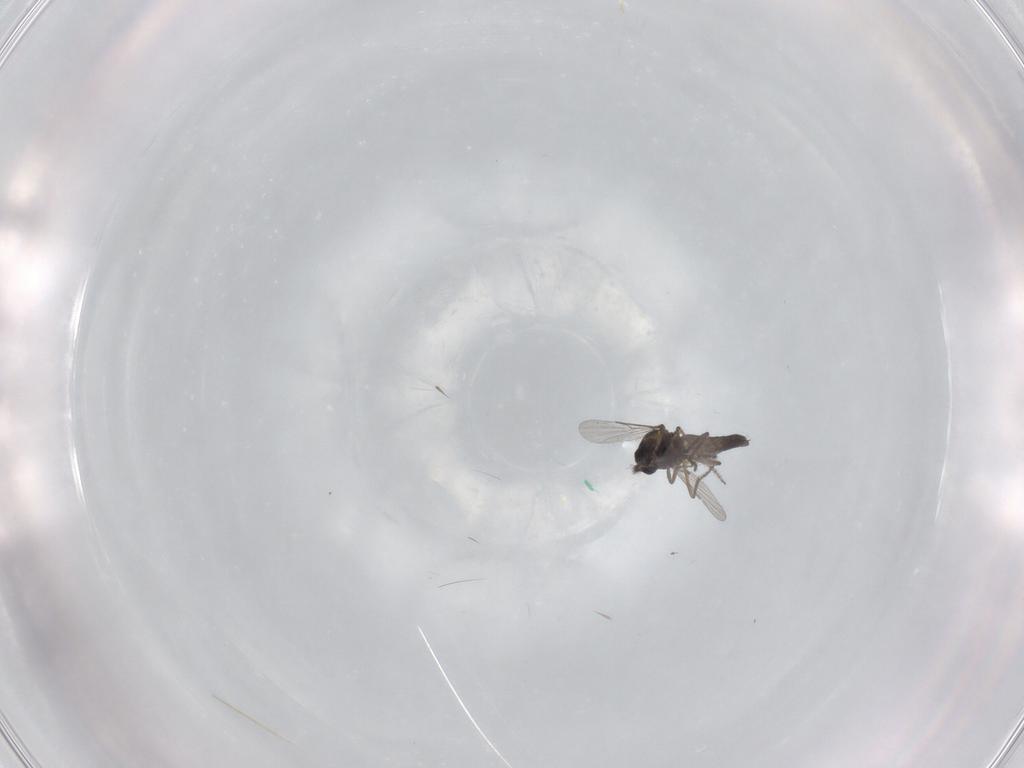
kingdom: Animalia
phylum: Arthropoda
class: Insecta
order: Diptera
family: Ceratopogonidae
